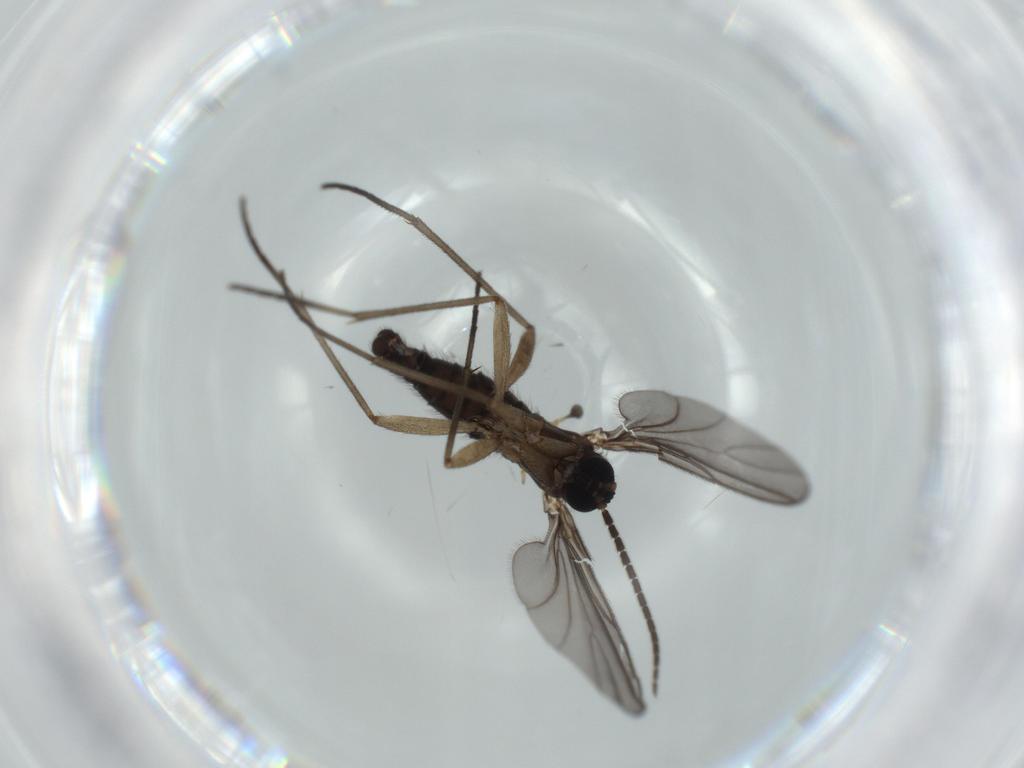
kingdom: Animalia
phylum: Arthropoda
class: Insecta
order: Diptera
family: Sciaridae
